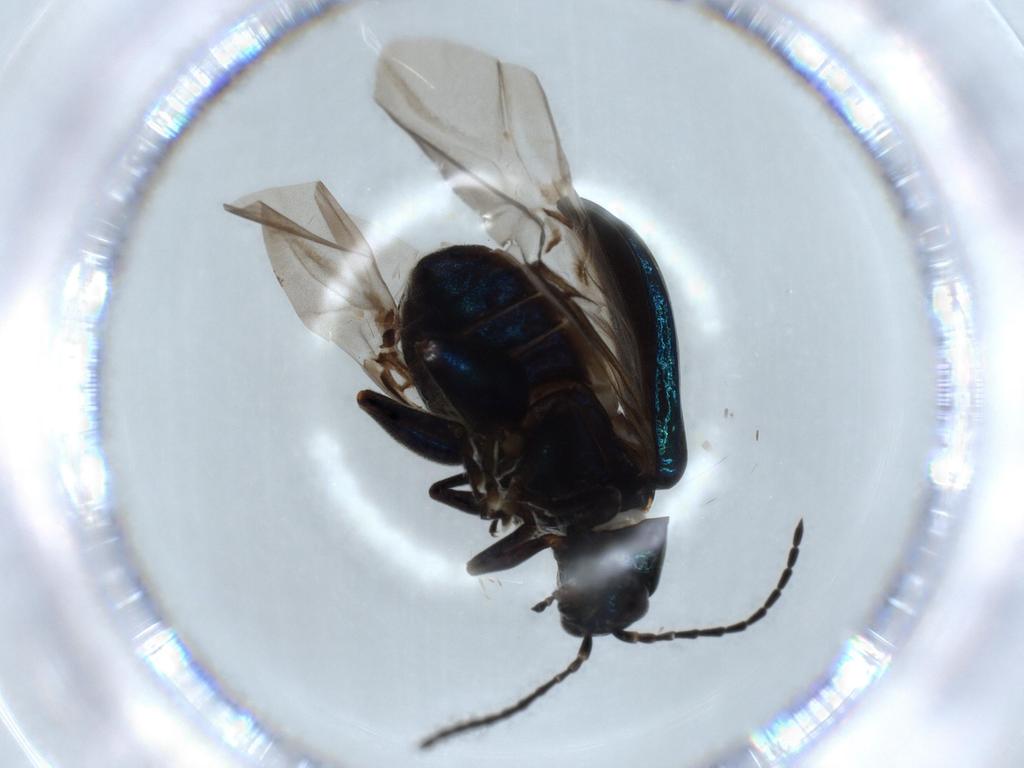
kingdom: Animalia
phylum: Arthropoda
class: Insecta
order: Coleoptera
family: Chrysomelidae
